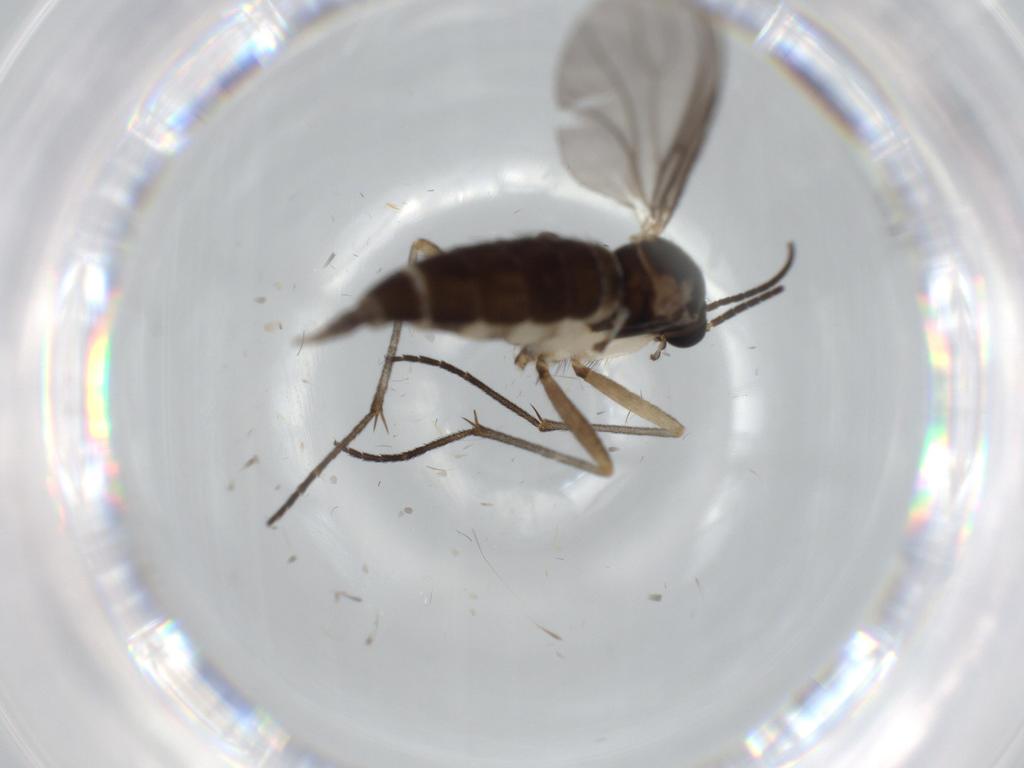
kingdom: Animalia
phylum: Arthropoda
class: Insecta
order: Diptera
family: Sciaridae
